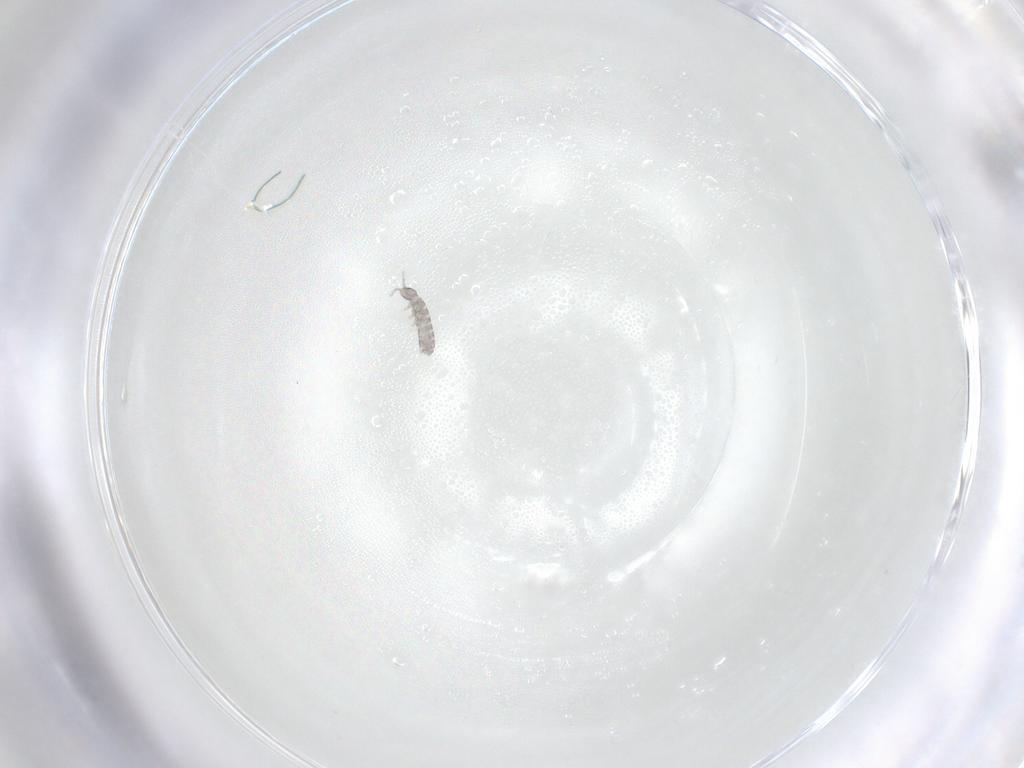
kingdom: Animalia
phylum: Arthropoda
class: Collembola
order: Entomobryomorpha
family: Isotomidae
